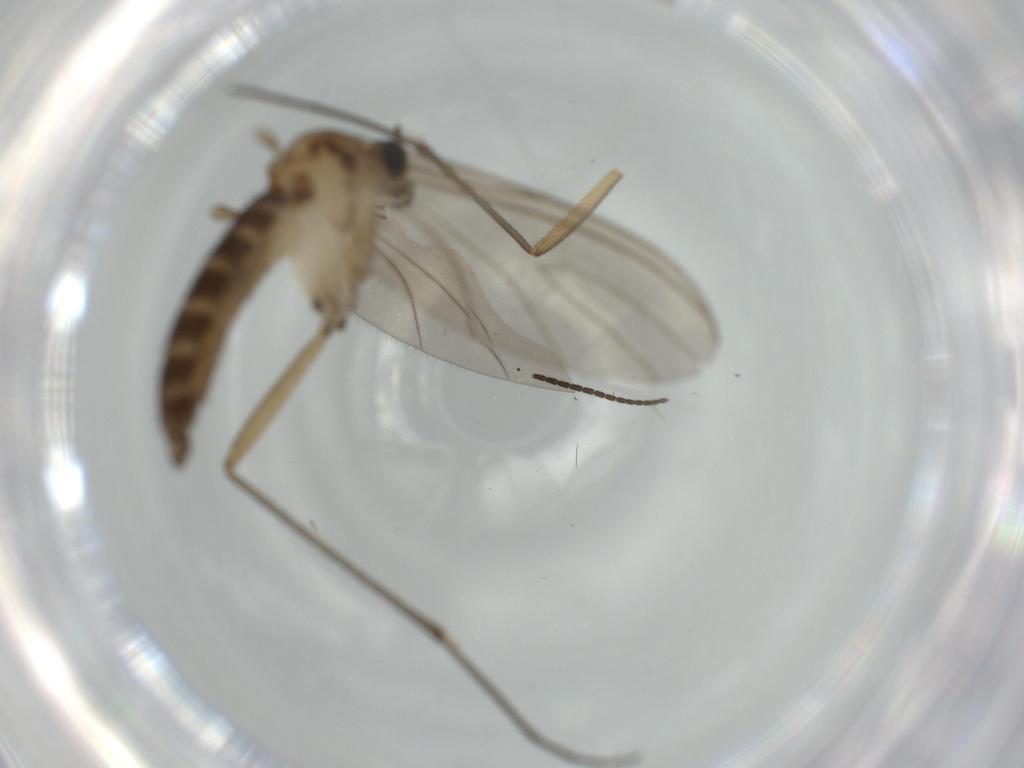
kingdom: Animalia
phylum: Arthropoda
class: Insecta
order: Diptera
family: Sciaridae
